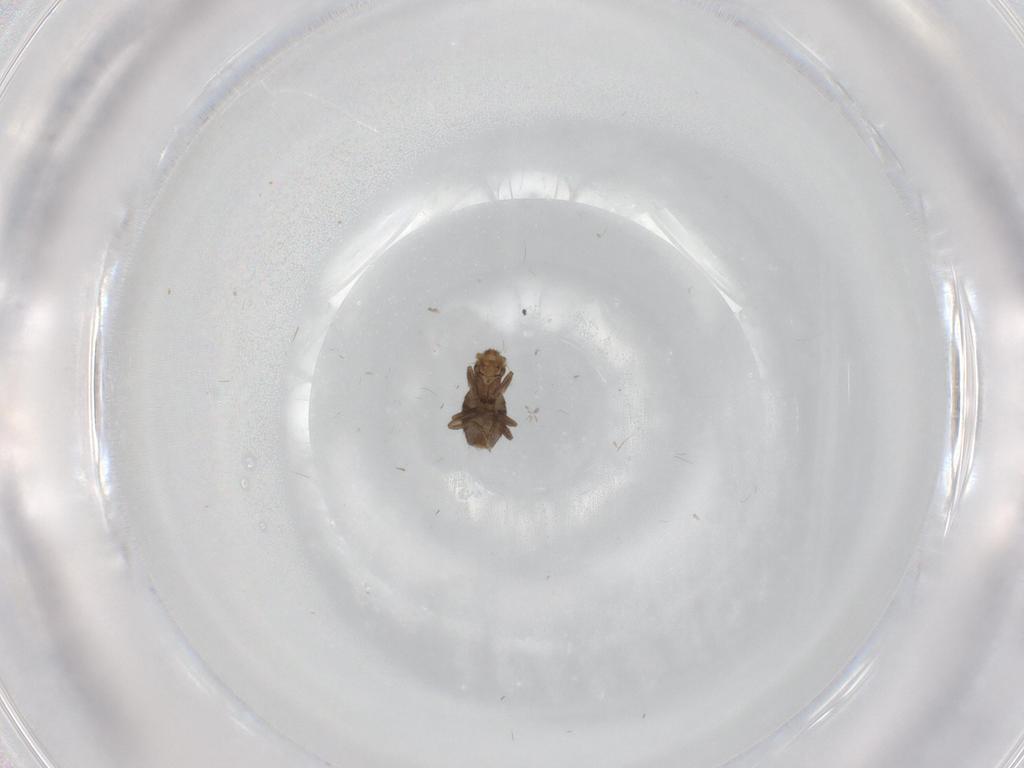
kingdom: Animalia
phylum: Arthropoda
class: Insecta
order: Diptera
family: Phoridae
